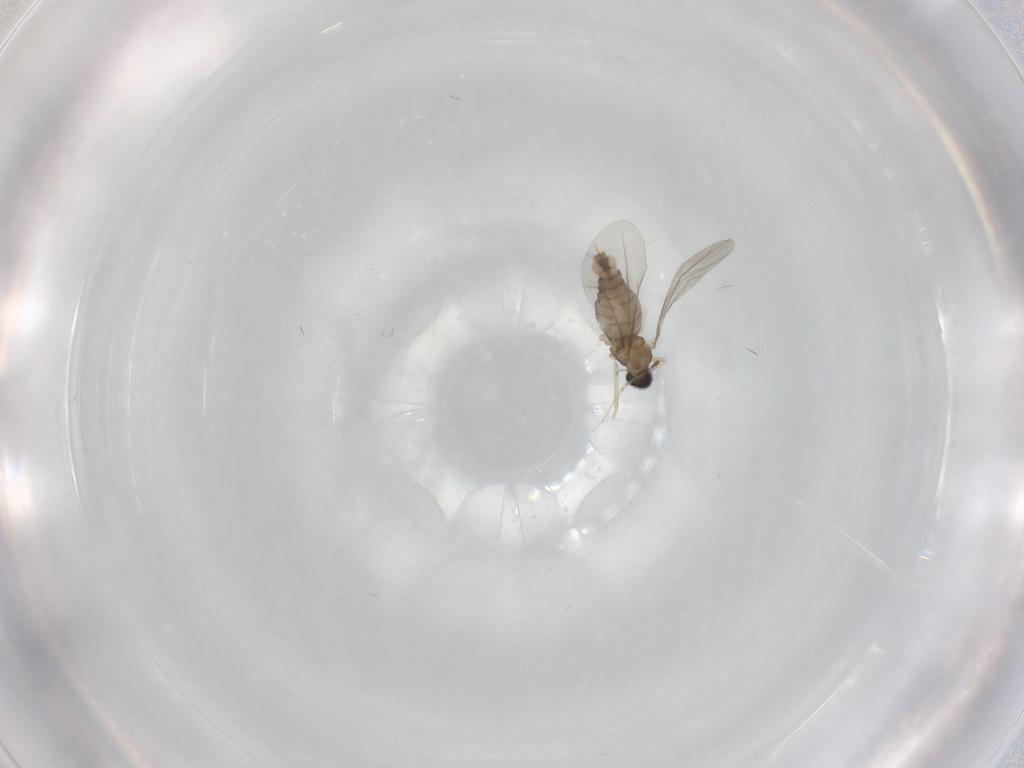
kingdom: Animalia
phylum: Arthropoda
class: Insecta
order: Diptera
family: Cecidomyiidae
